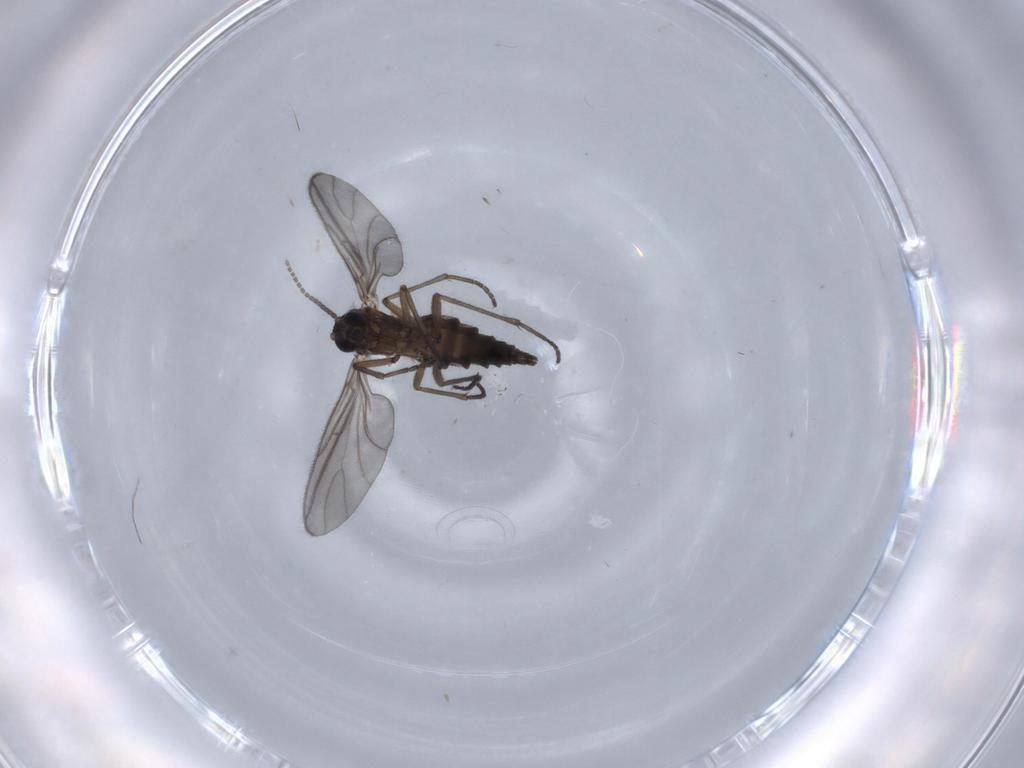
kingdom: Animalia
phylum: Arthropoda
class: Insecta
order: Diptera
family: Sciaridae
